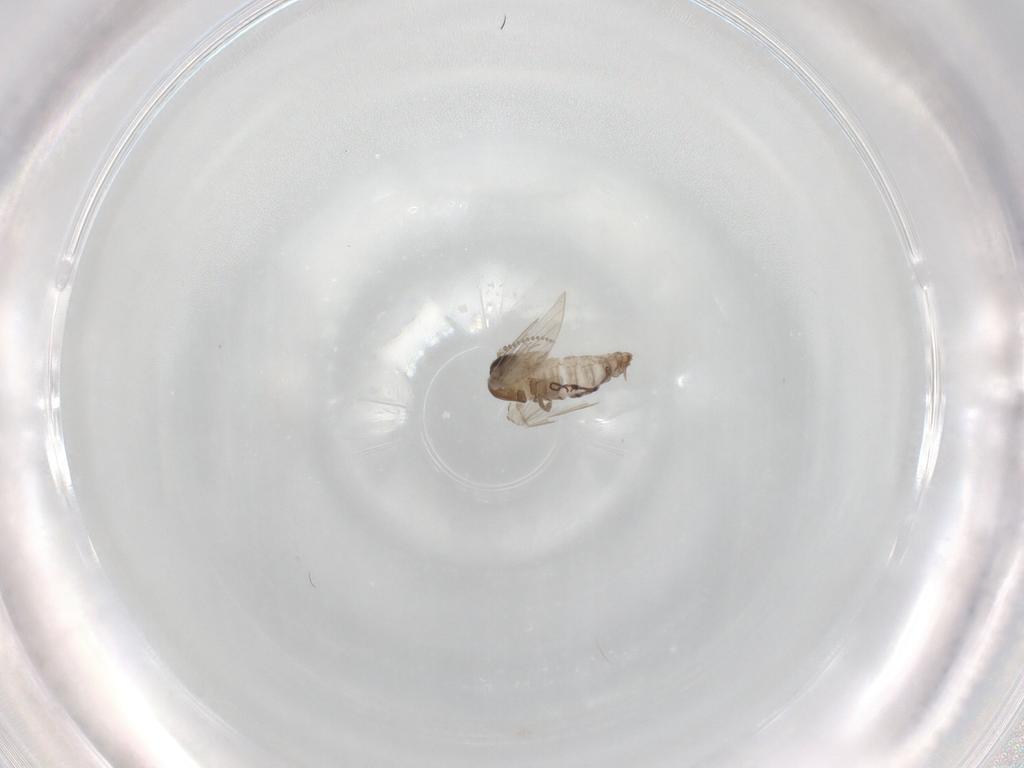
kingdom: Animalia
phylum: Arthropoda
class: Insecta
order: Diptera
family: Psychodidae
